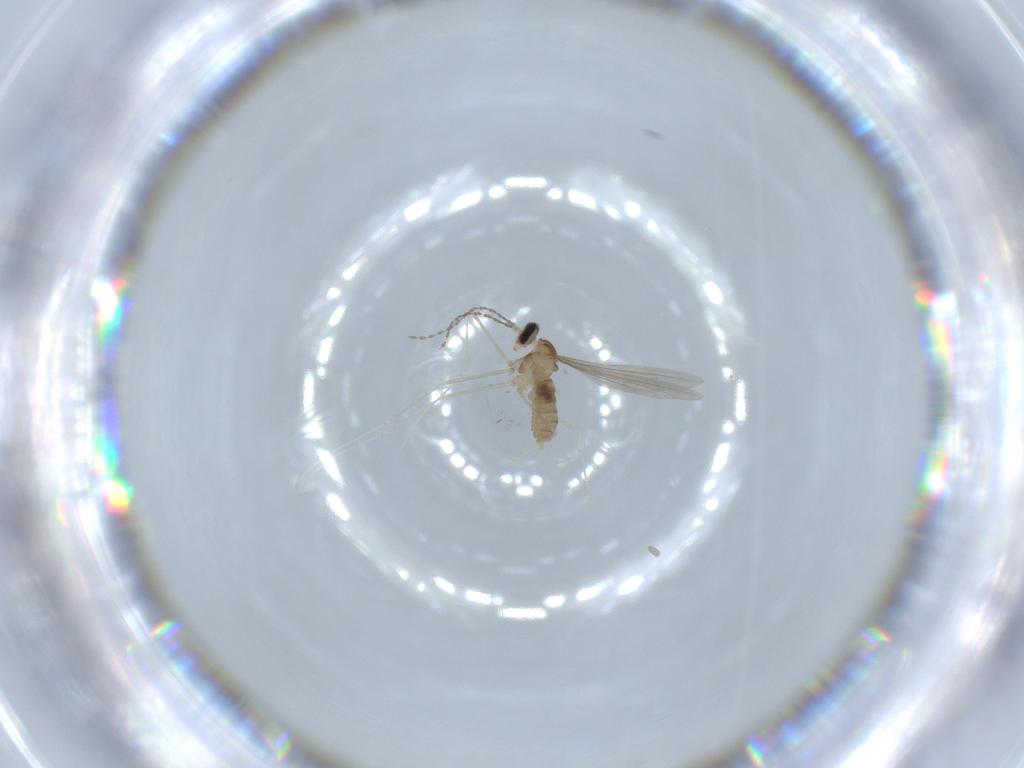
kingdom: Animalia
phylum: Arthropoda
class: Insecta
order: Diptera
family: Cecidomyiidae
